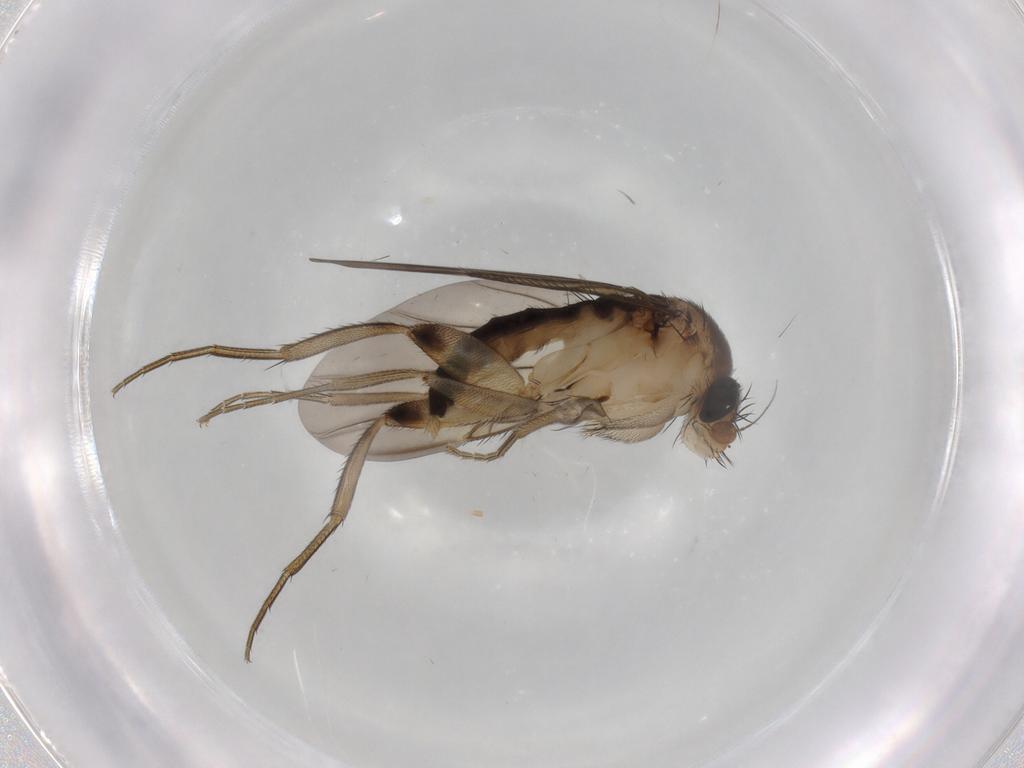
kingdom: Animalia
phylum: Arthropoda
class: Insecta
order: Diptera
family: Phoridae
